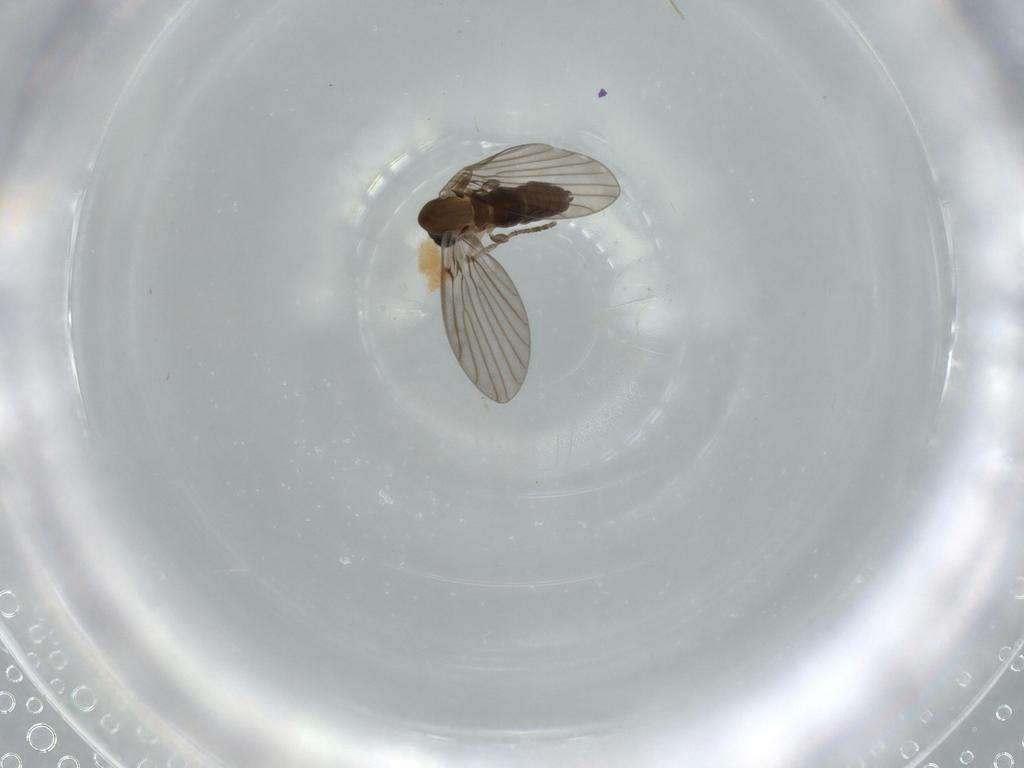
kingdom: Animalia
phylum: Arthropoda
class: Insecta
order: Diptera
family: Psychodidae
